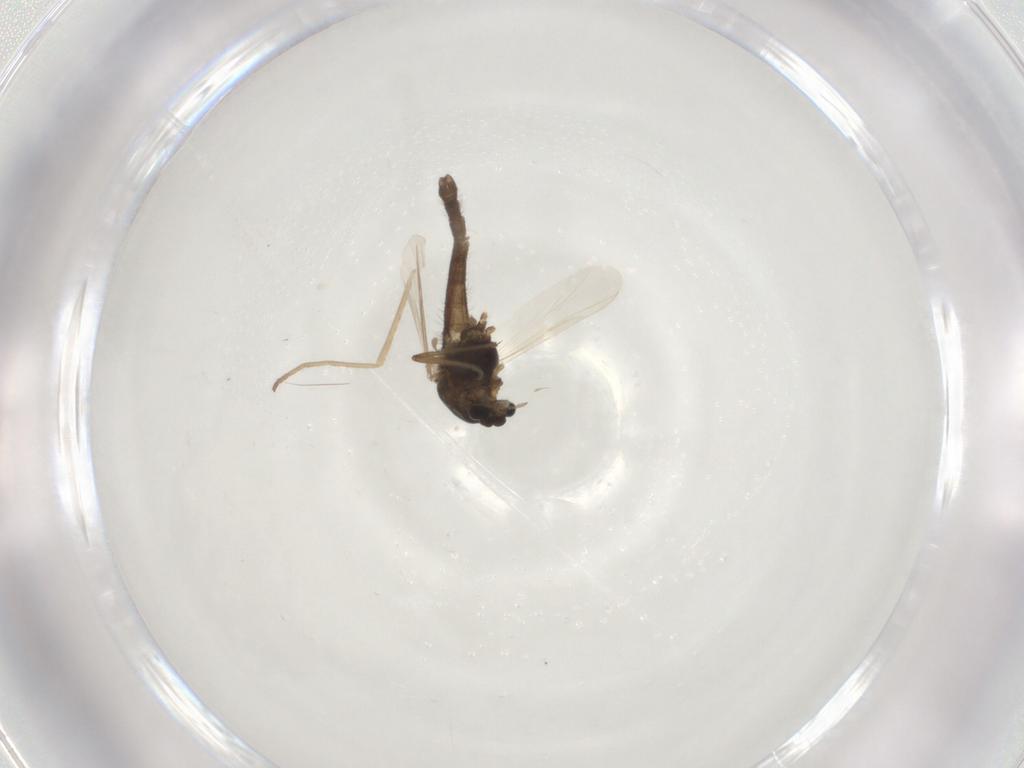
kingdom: Animalia
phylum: Arthropoda
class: Insecta
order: Diptera
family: Chironomidae
